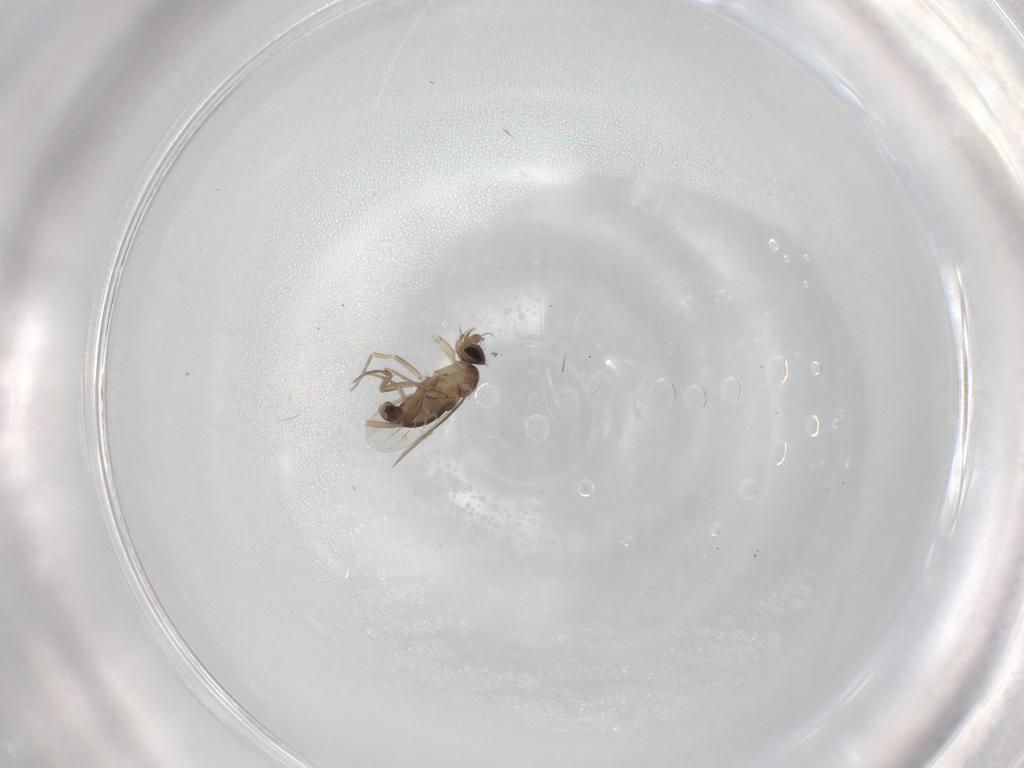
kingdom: Animalia
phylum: Arthropoda
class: Insecta
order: Diptera
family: Phoridae
